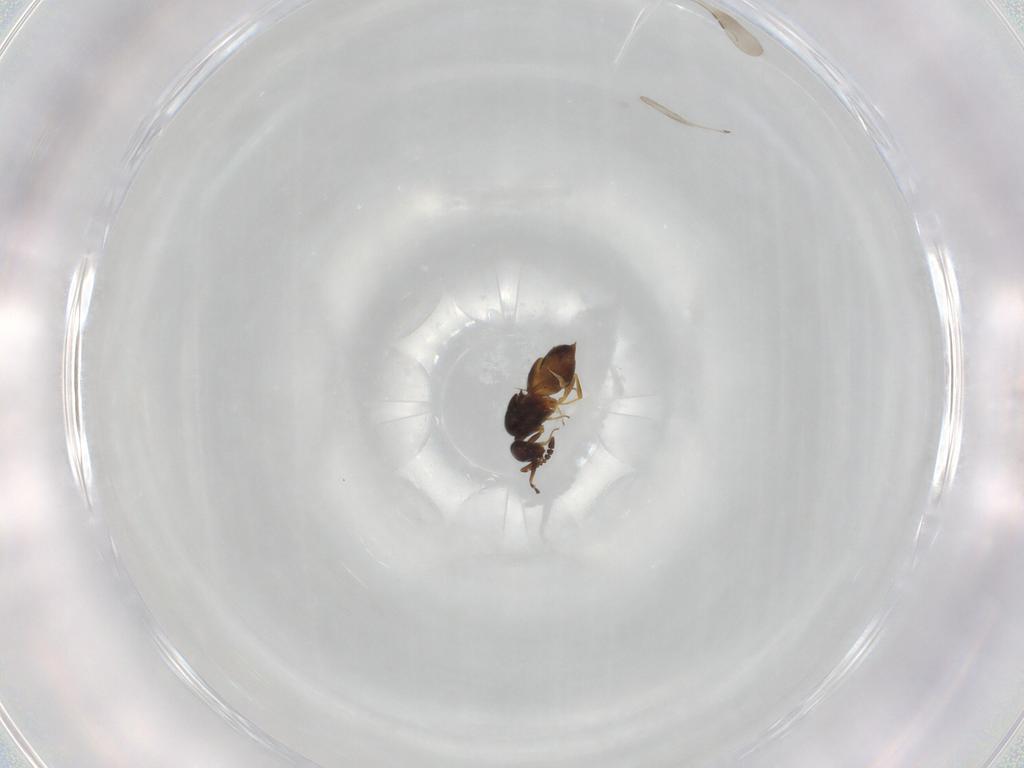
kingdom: Animalia
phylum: Arthropoda
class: Insecta
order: Hymenoptera
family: Ceraphronidae
